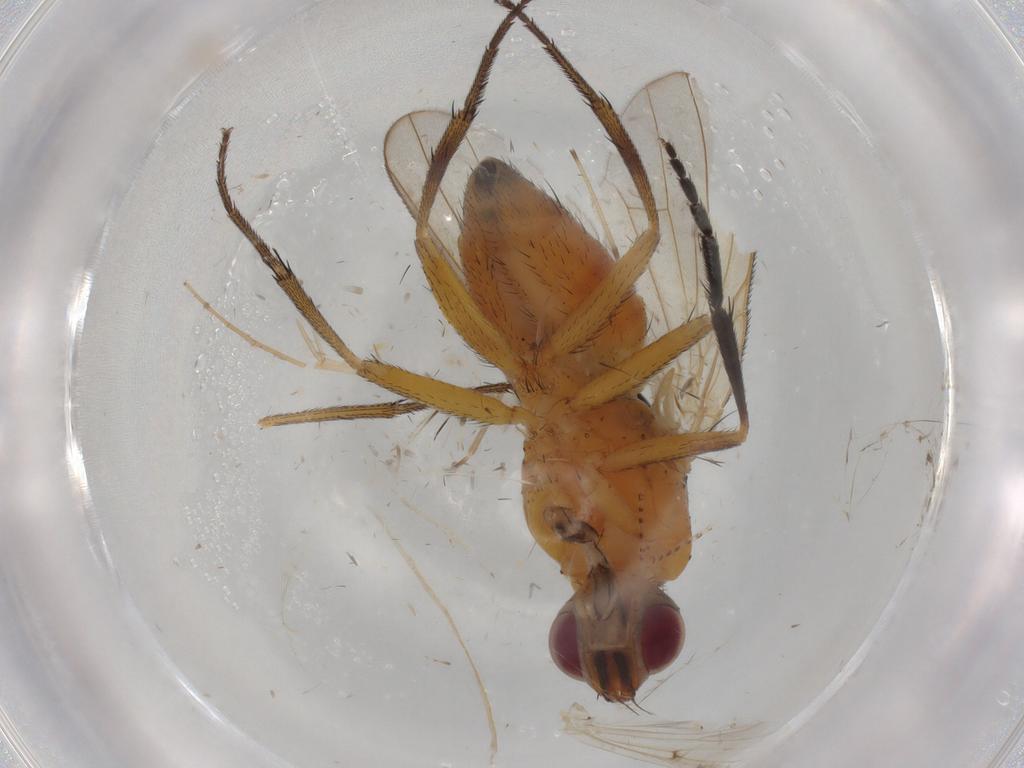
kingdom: Animalia
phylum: Arthropoda
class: Insecta
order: Diptera
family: Muscidae
